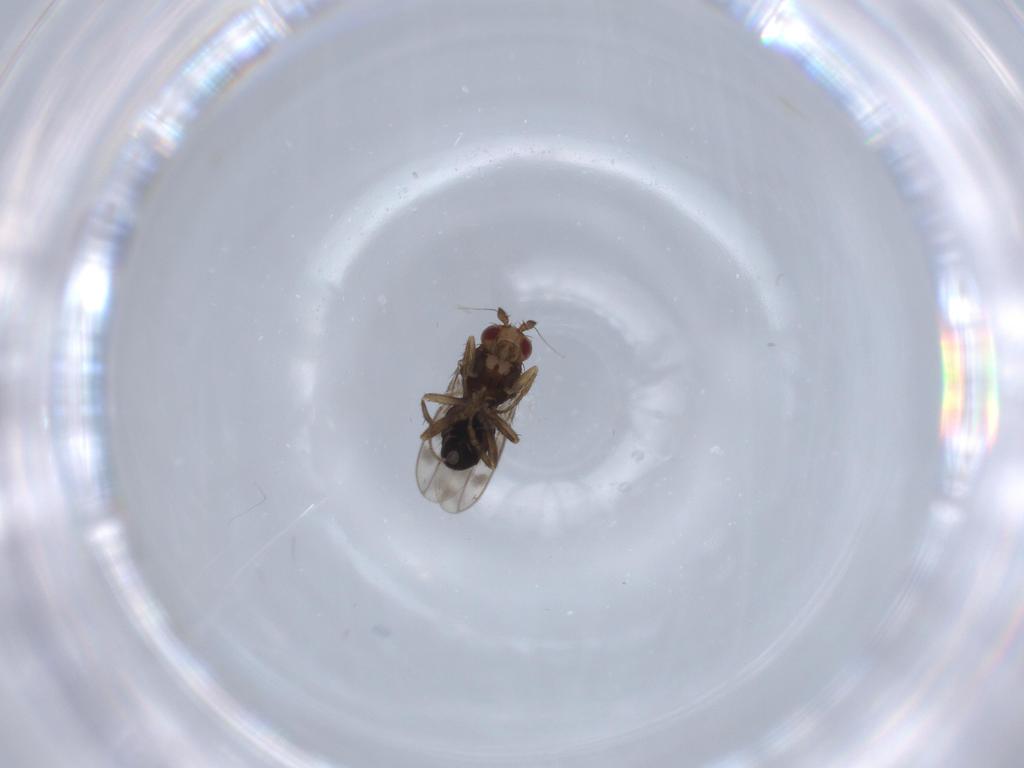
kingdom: Animalia
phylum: Arthropoda
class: Insecta
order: Diptera
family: Sphaeroceridae
